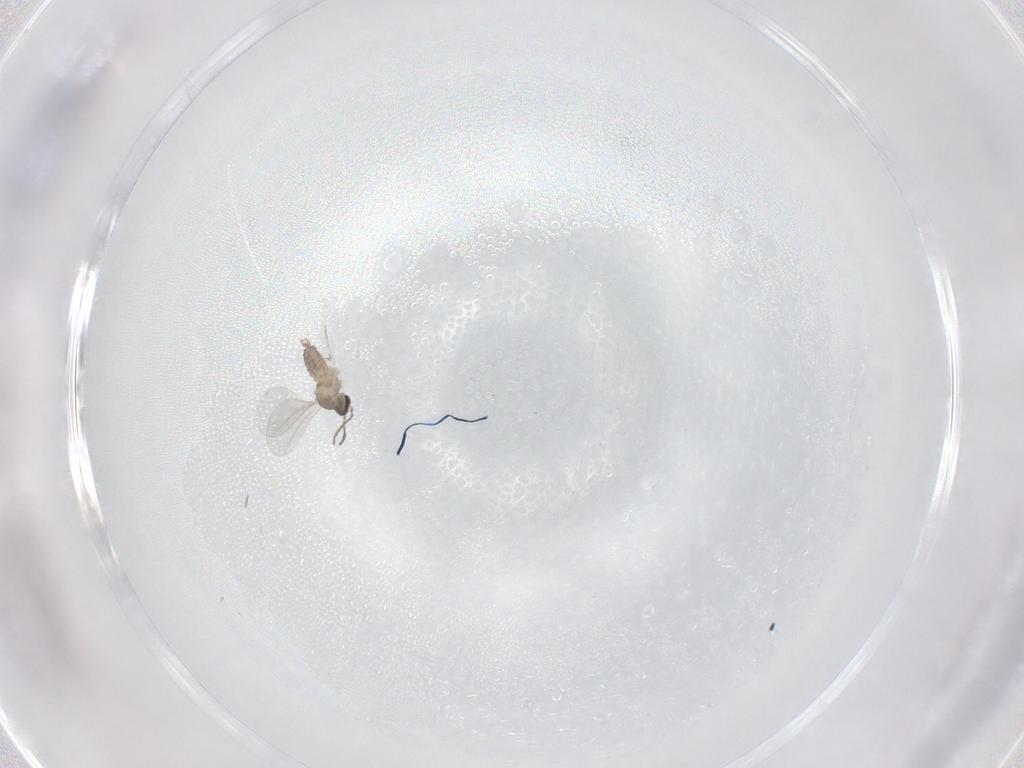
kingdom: Animalia
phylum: Arthropoda
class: Insecta
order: Diptera
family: Cecidomyiidae
